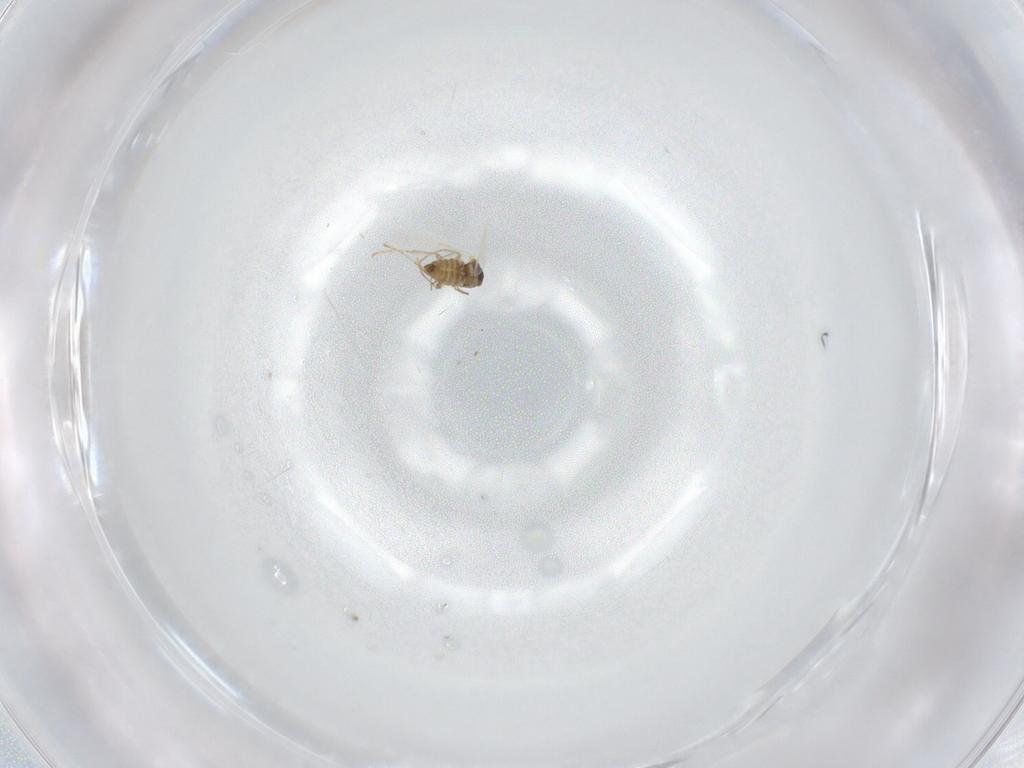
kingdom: Animalia
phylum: Arthropoda
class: Insecta
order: Diptera
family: Cecidomyiidae
